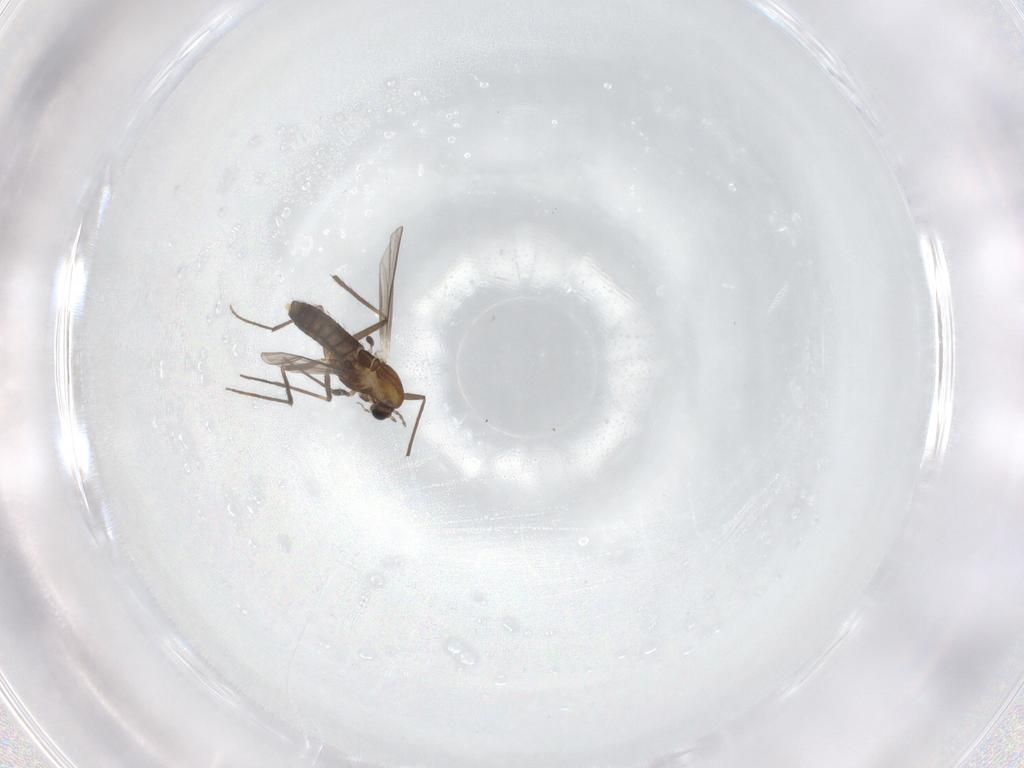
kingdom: Animalia
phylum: Arthropoda
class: Insecta
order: Diptera
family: Chironomidae
